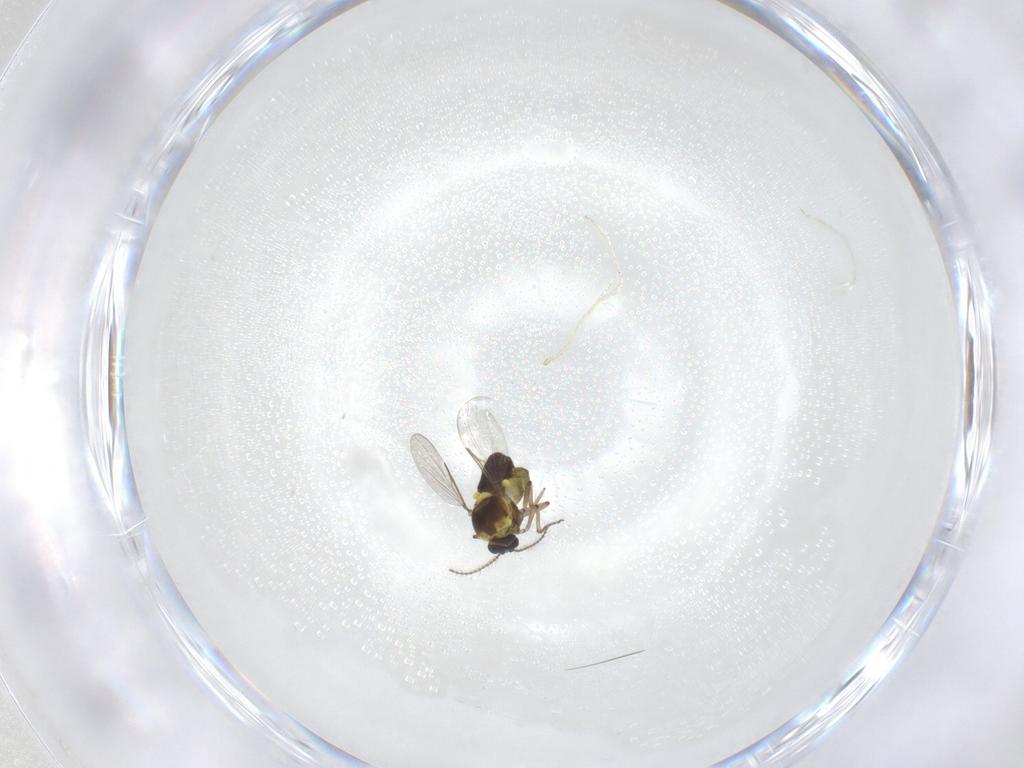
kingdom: Animalia
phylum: Arthropoda
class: Insecta
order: Diptera
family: Ceratopogonidae
